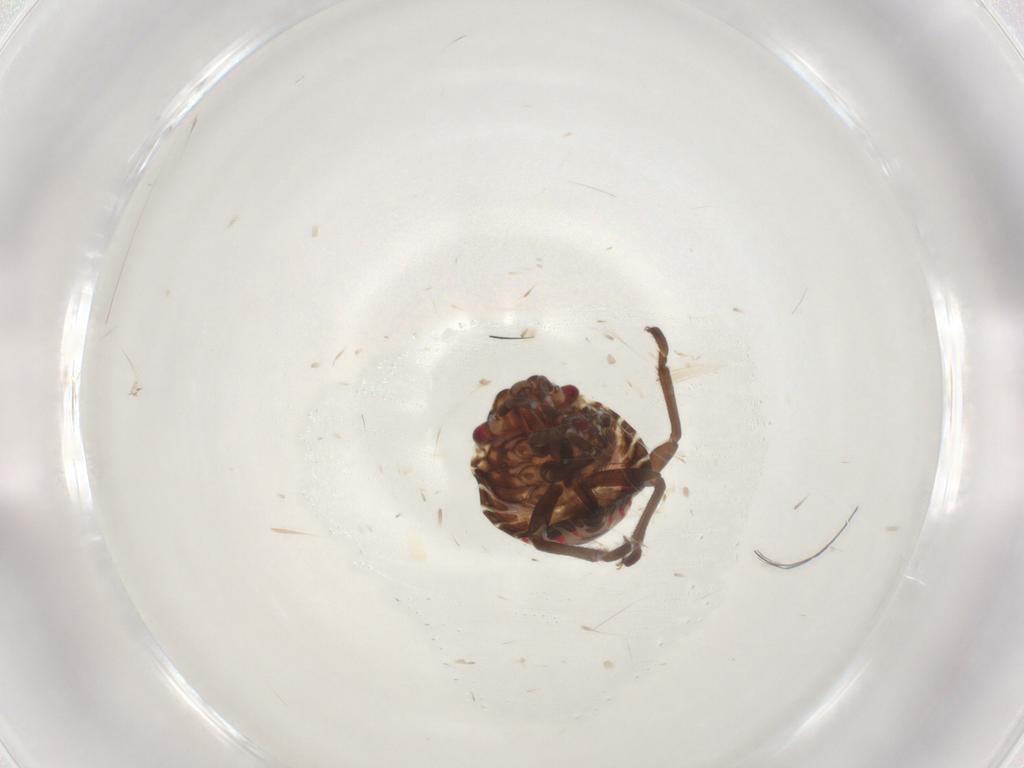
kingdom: Animalia
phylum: Arthropoda
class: Insecta
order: Hemiptera
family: Pentatomidae
